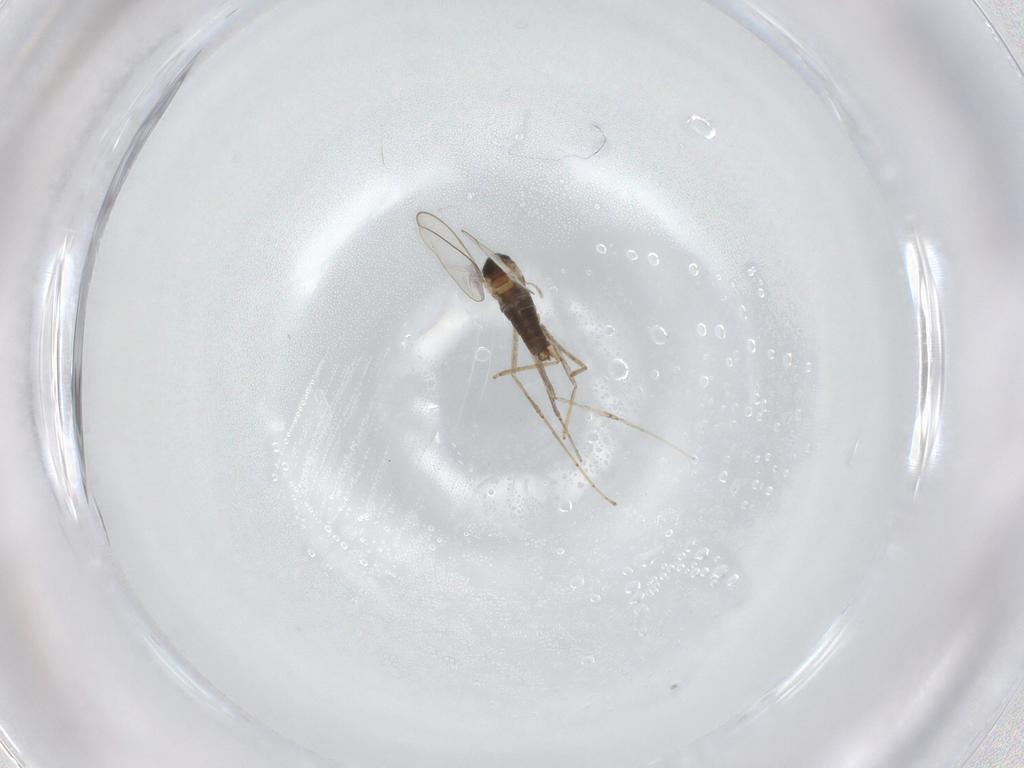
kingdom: Animalia
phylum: Arthropoda
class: Insecta
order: Diptera
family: Cecidomyiidae
